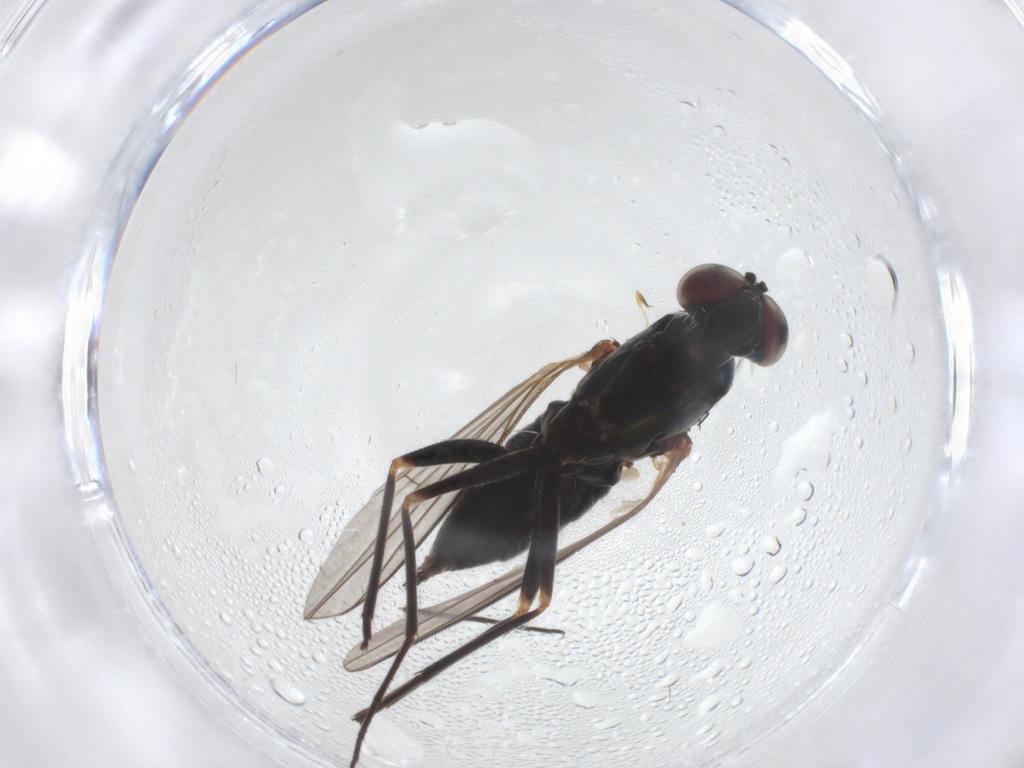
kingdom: Animalia
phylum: Arthropoda
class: Insecta
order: Diptera
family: Dolichopodidae
